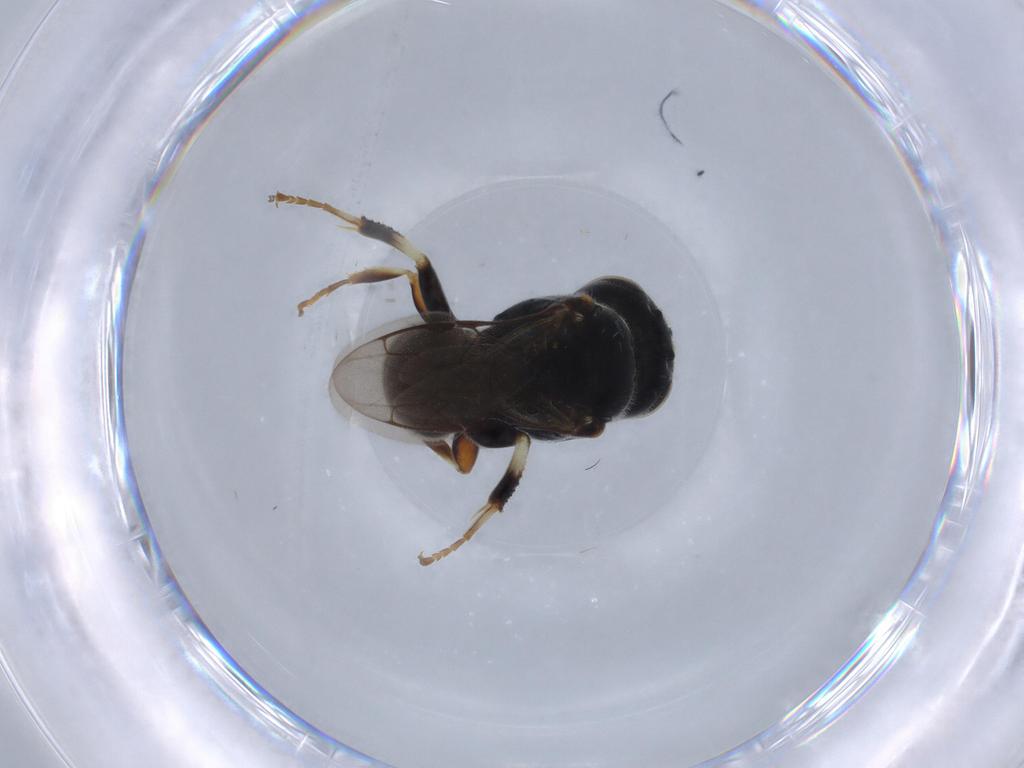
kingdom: Animalia
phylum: Arthropoda
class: Insecta
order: Hymenoptera
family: Crabronidae
